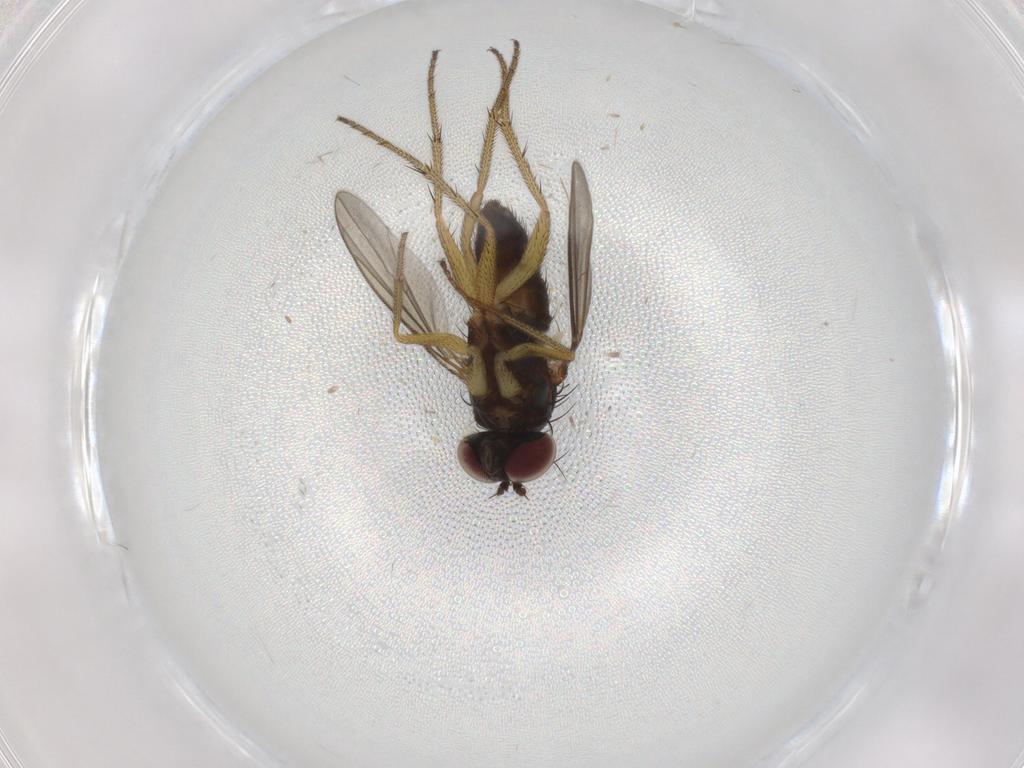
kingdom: Animalia
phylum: Arthropoda
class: Insecta
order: Diptera
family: Dolichopodidae
